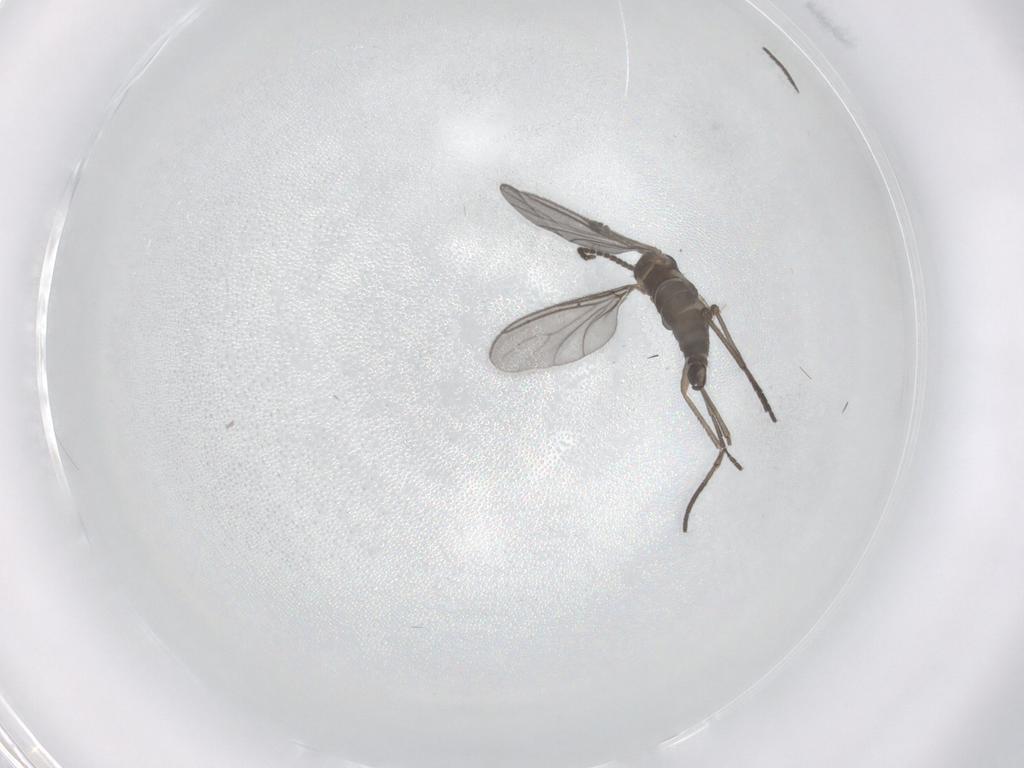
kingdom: Animalia
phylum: Arthropoda
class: Insecta
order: Diptera
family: Sciaridae
